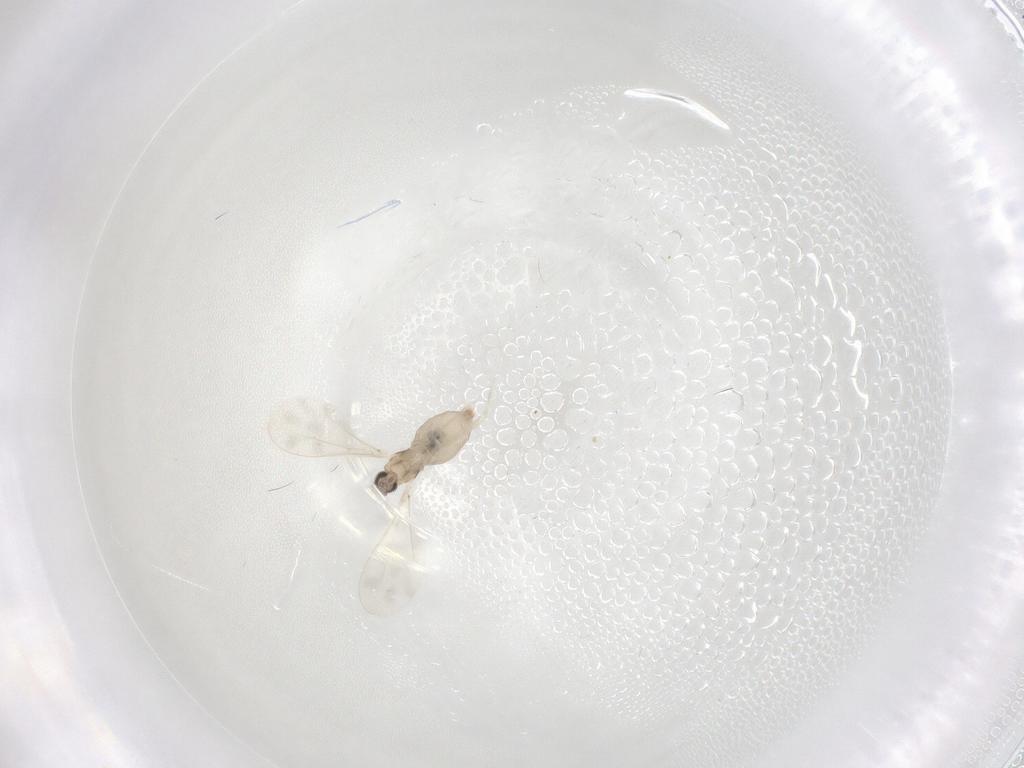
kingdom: Animalia
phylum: Arthropoda
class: Insecta
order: Diptera
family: Cecidomyiidae
